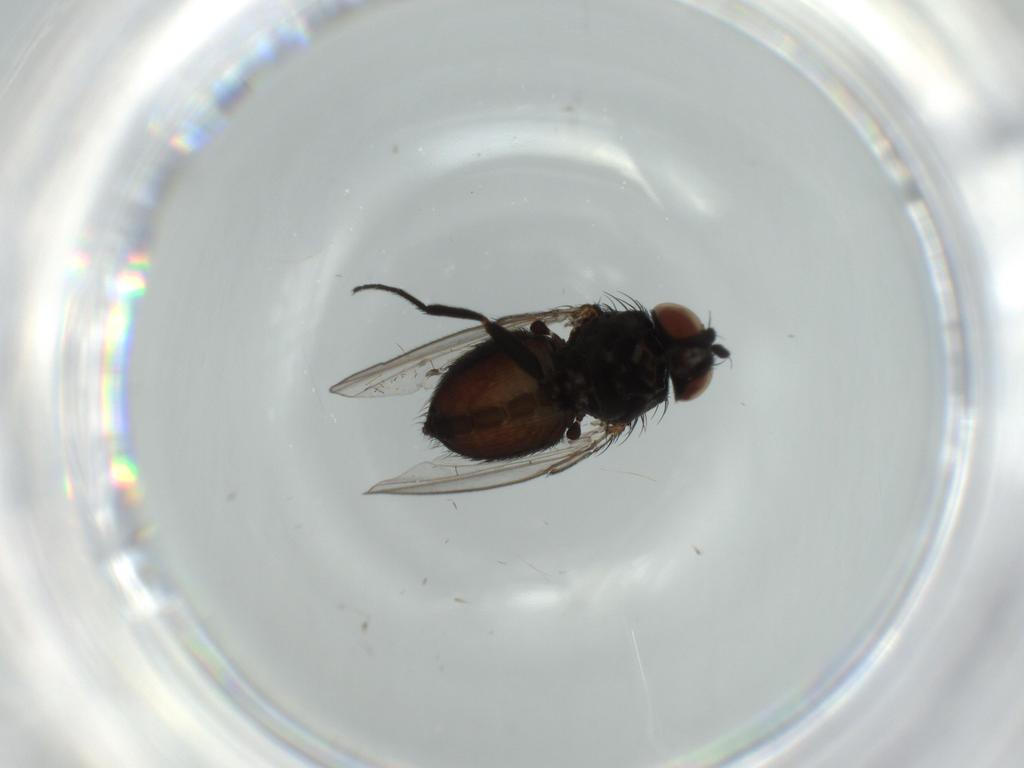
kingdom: Animalia
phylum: Arthropoda
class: Insecta
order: Diptera
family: Milichiidae
